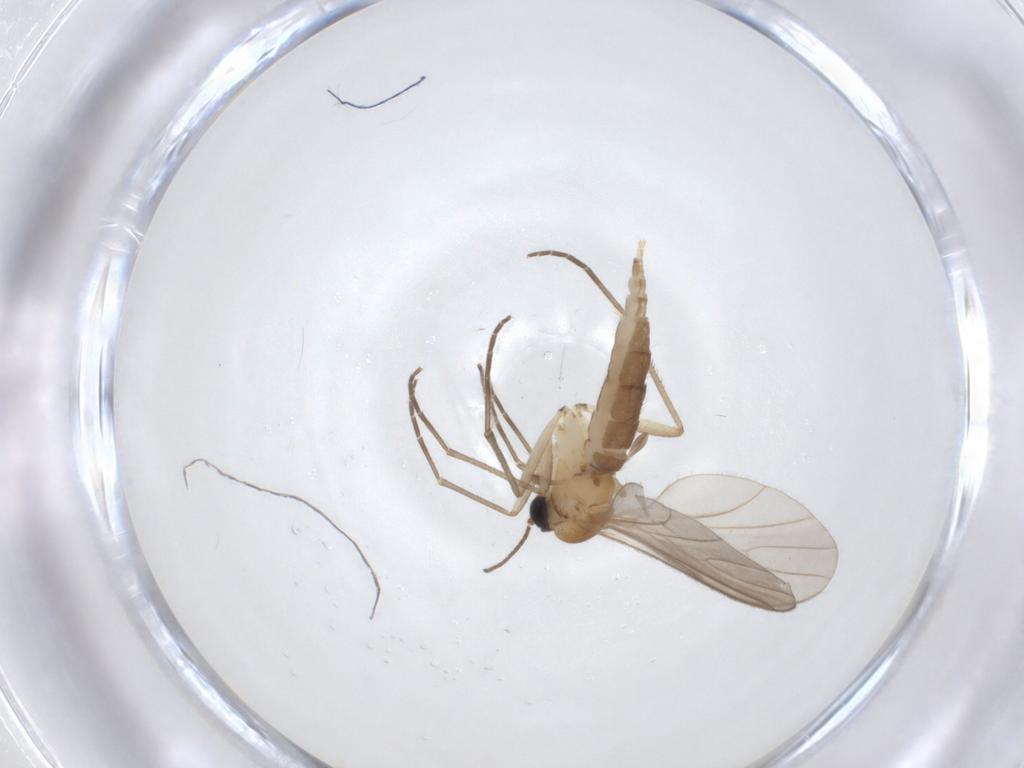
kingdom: Animalia
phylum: Arthropoda
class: Insecta
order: Diptera
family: Sciaridae
